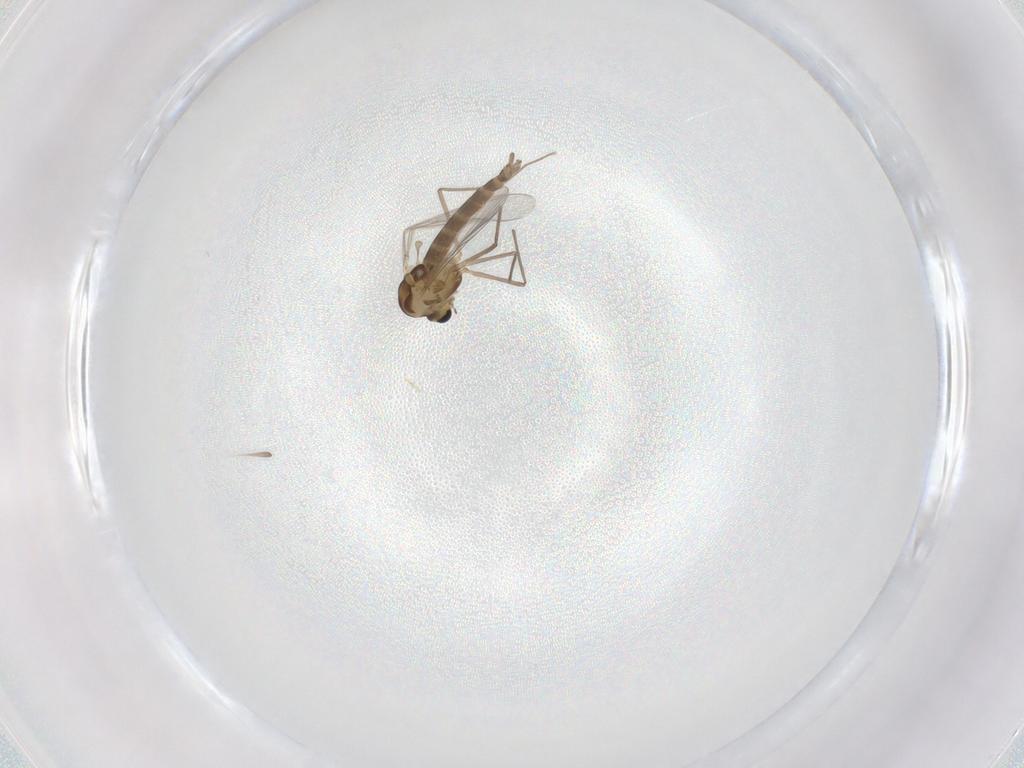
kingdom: Animalia
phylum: Arthropoda
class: Insecta
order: Diptera
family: Chironomidae
